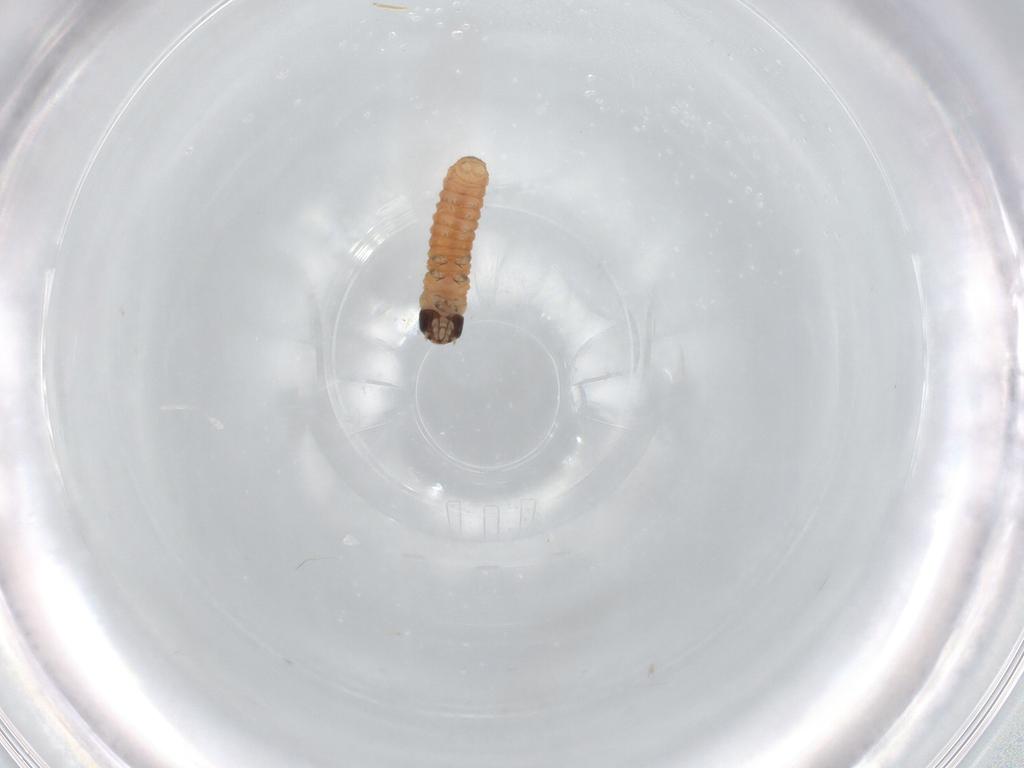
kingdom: Animalia
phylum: Arthropoda
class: Insecta
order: Lepidoptera
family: Tortricidae
